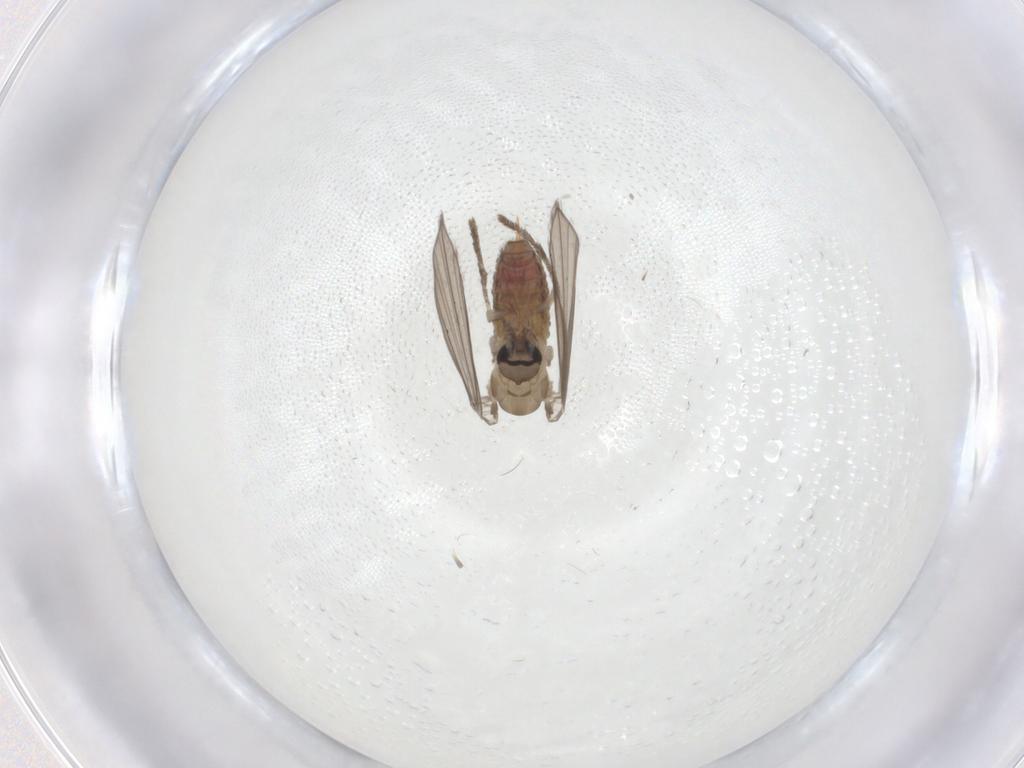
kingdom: Animalia
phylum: Arthropoda
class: Insecta
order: Diptera
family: Psychodidae
